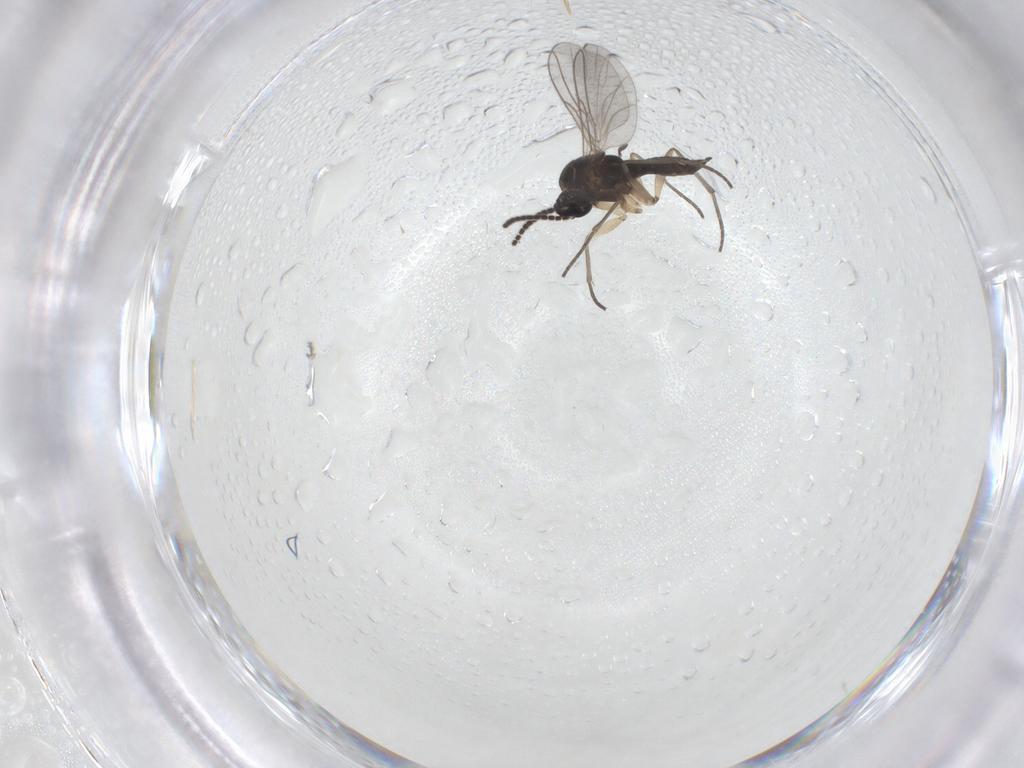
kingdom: Animalia
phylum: Arthropoda
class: Insecta
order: Diptera
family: Sciaridae
